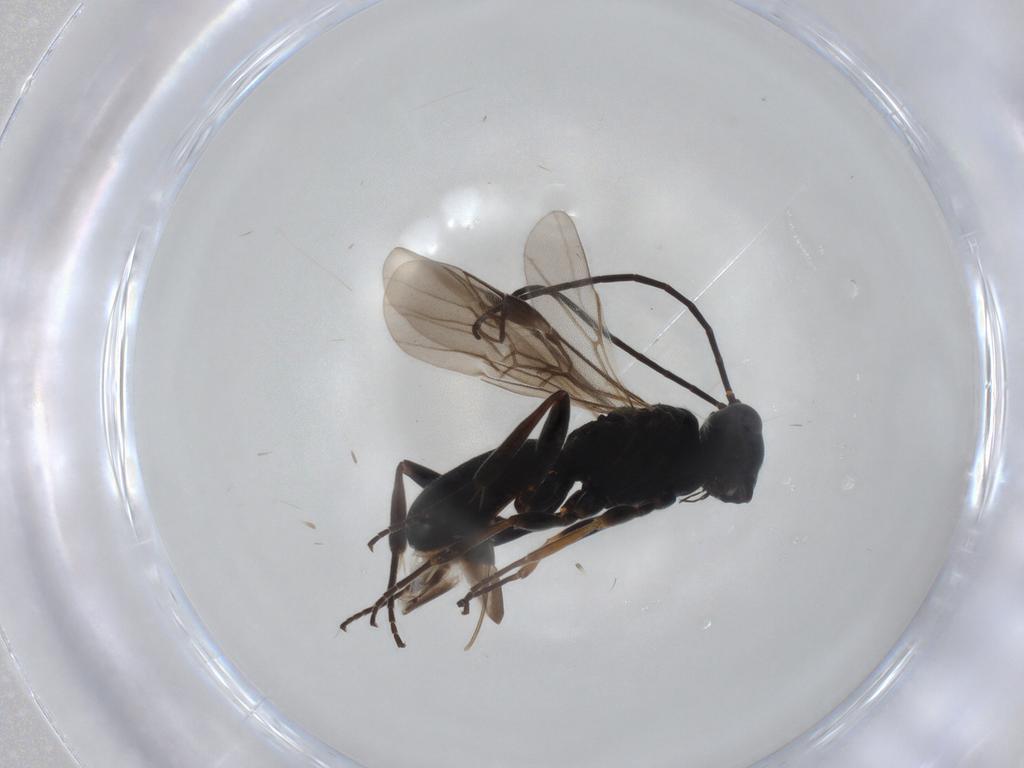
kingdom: Animalia
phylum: Arthropoda
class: Insecta
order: Hymenoptera
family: Braconidae
